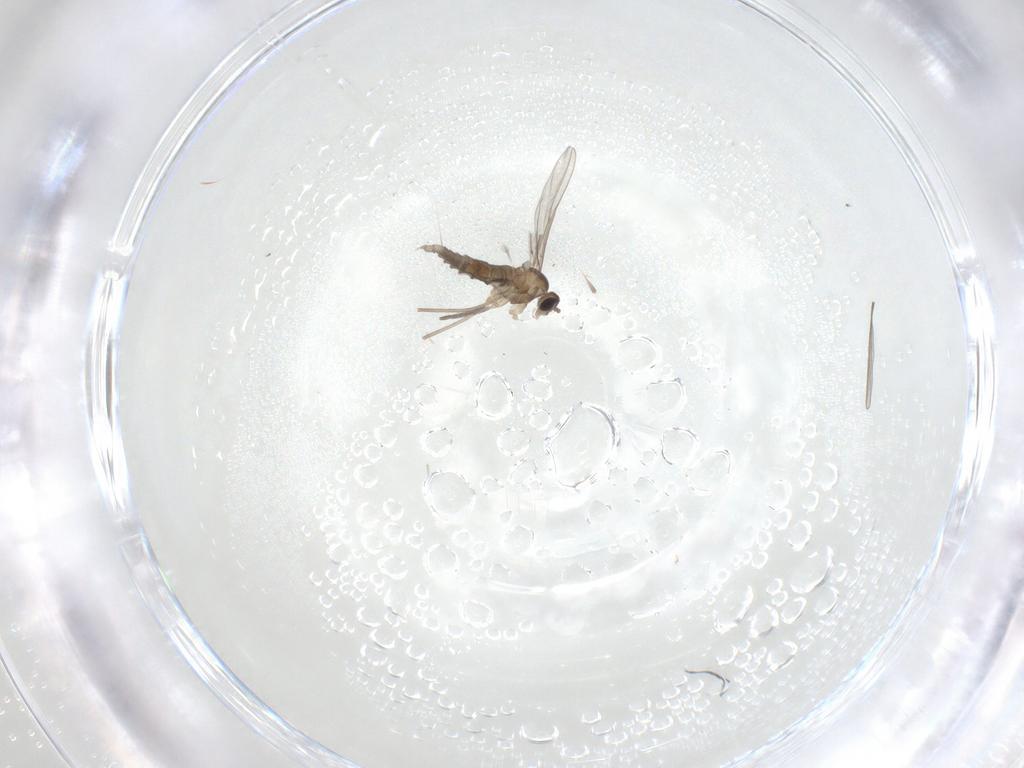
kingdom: Animalia
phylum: Arthropoda
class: Insecta
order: Diptera
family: Cecidomyiidae
